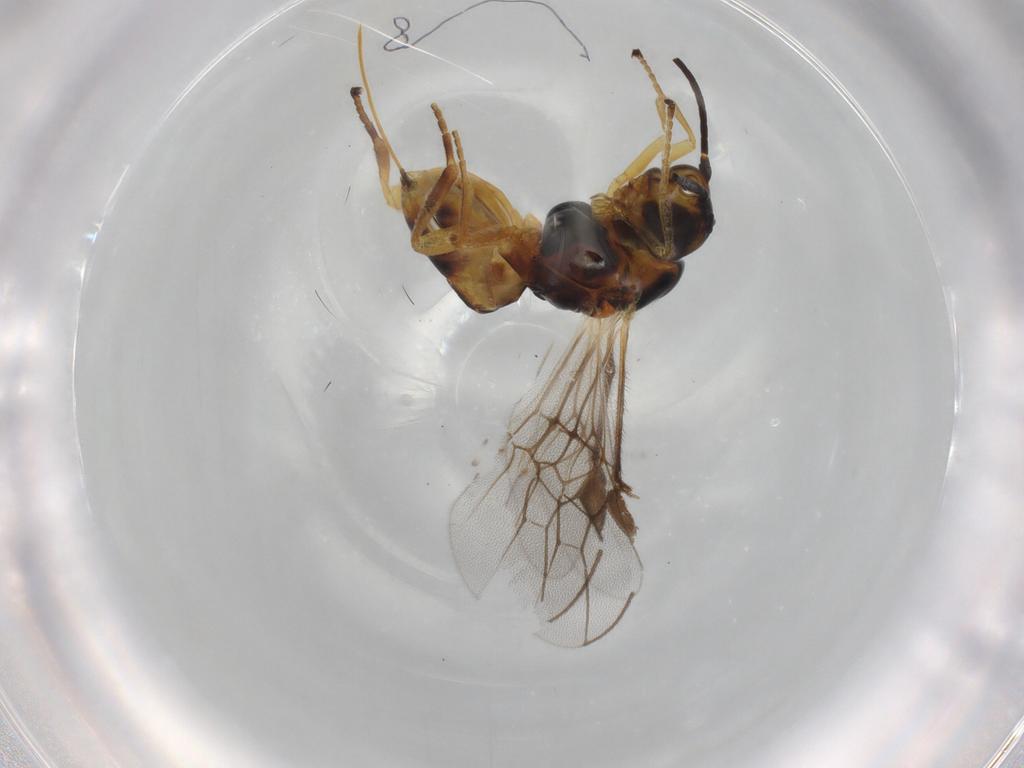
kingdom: Animalia
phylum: Arthropoda
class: Insecta
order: Hymenoptera
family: Braconidae
